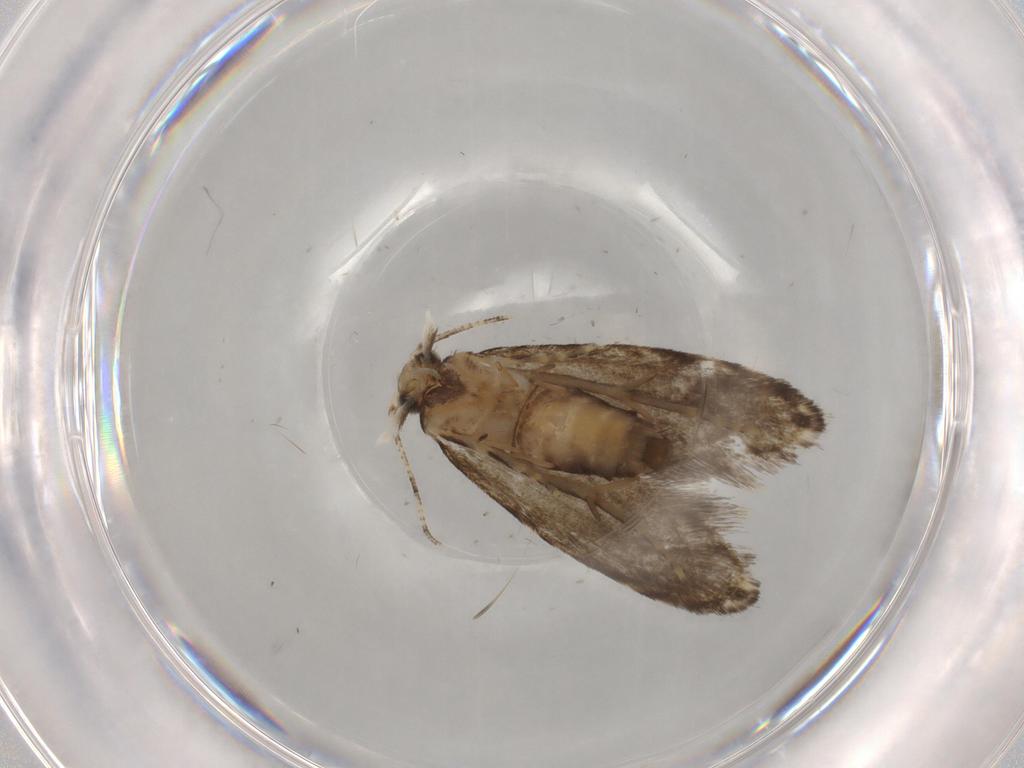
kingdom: Animalia
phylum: Arthropoda
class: Insecta
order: Lepidoptera
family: Tineidae
